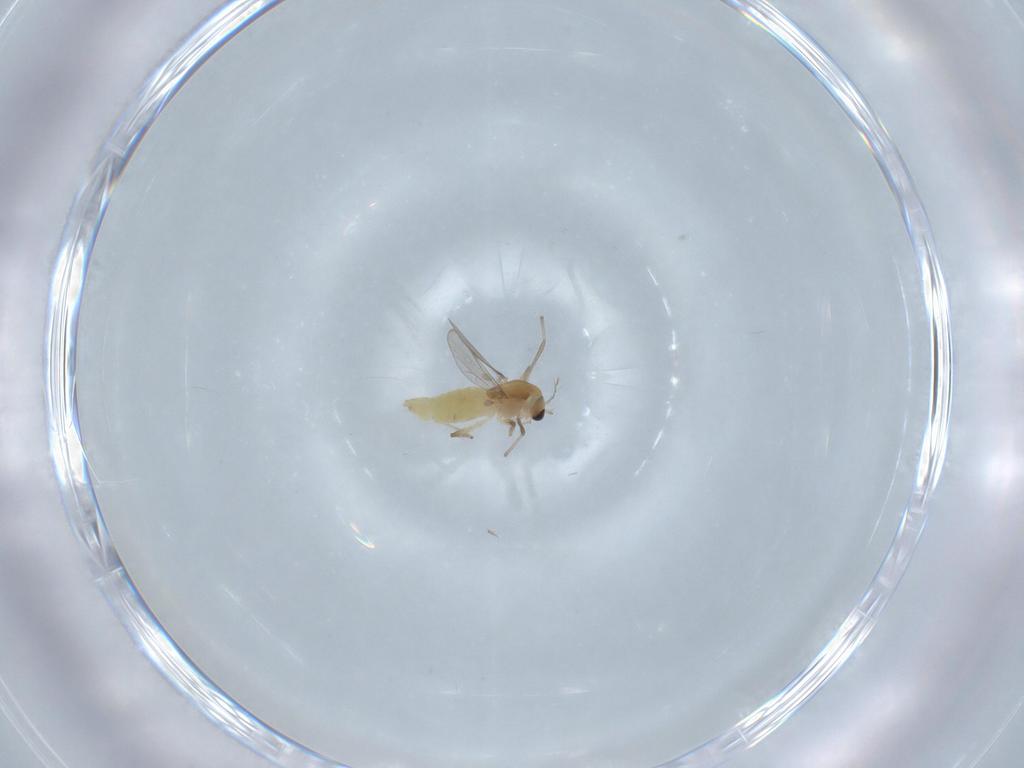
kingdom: Animalia
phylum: Arthropoda
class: Insecta
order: Diptera
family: Chironomidae
